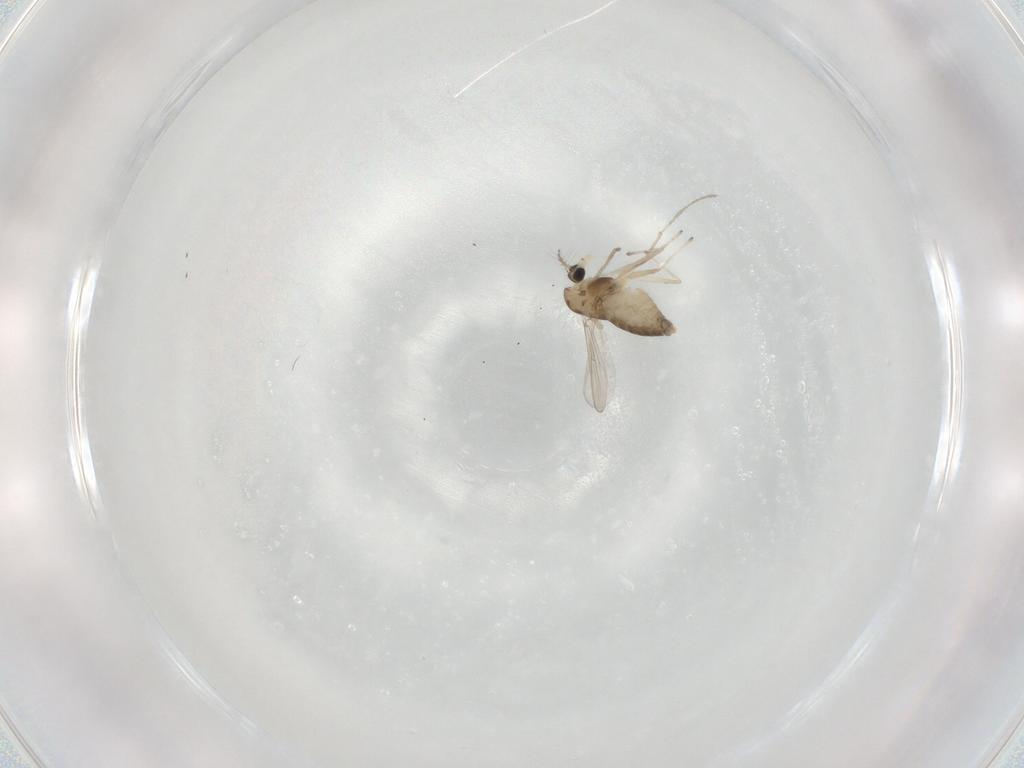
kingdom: Animalia
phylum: Arthropoda
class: Insecta
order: Diptera
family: Chironomidae
